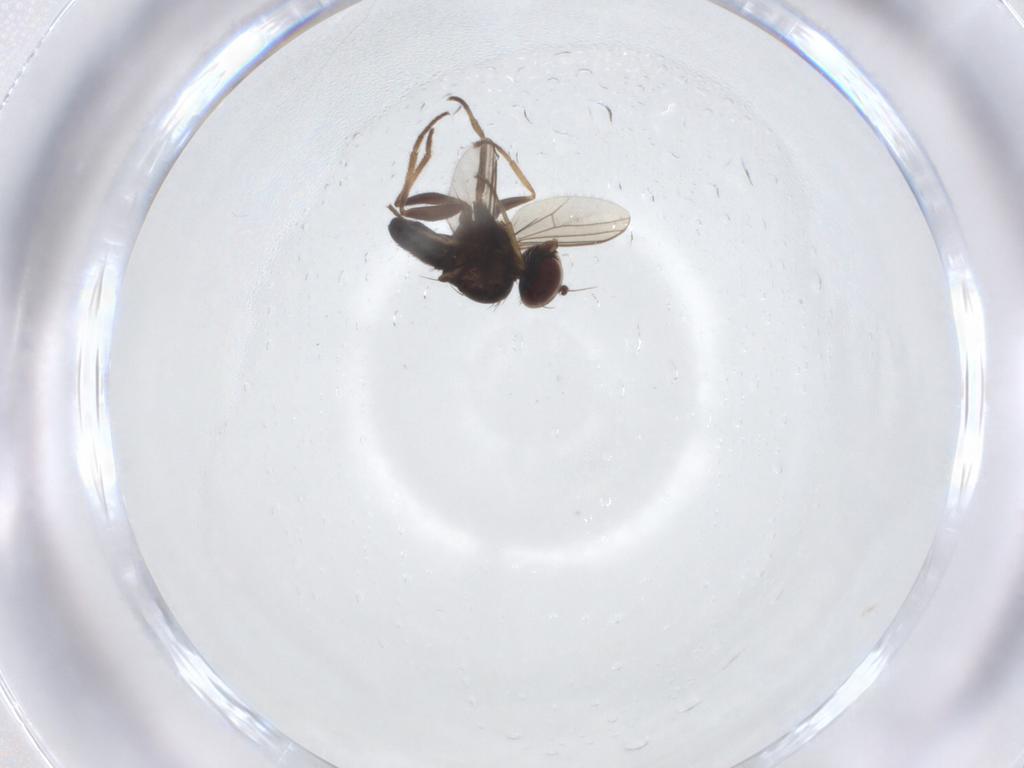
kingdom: Animalia
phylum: Arthropoda
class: Insecta
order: Diptera
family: Dolichopodidae
